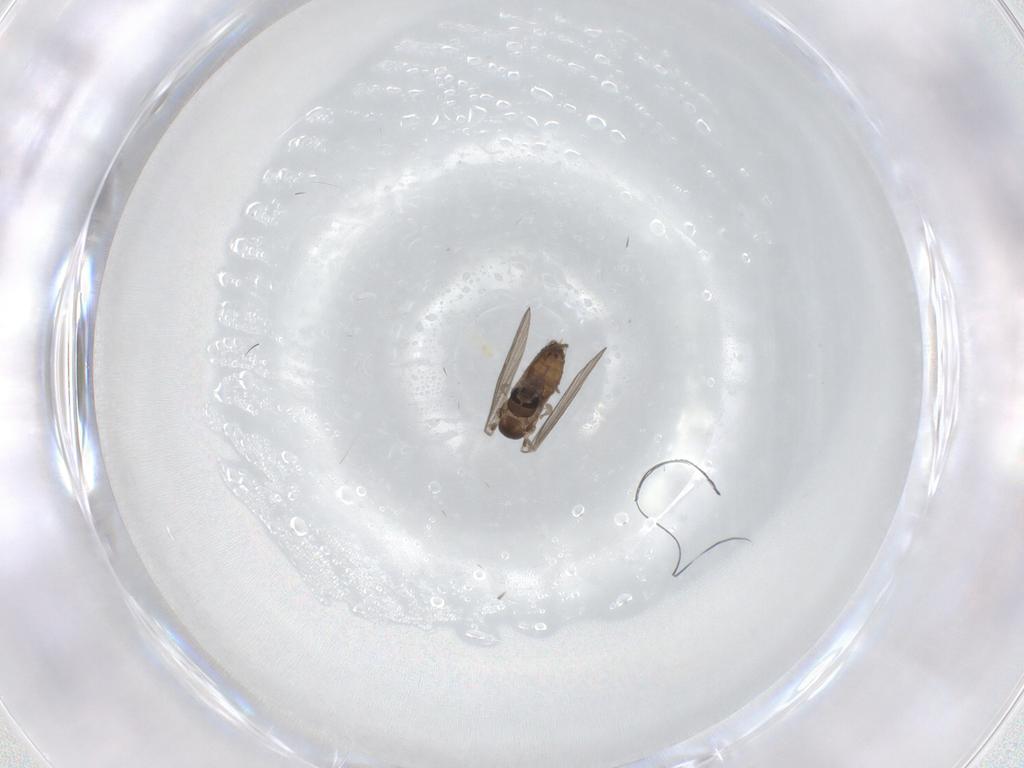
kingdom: Animalia
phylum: Arthropoda
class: Insecta
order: Diptera
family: Psychodidae
